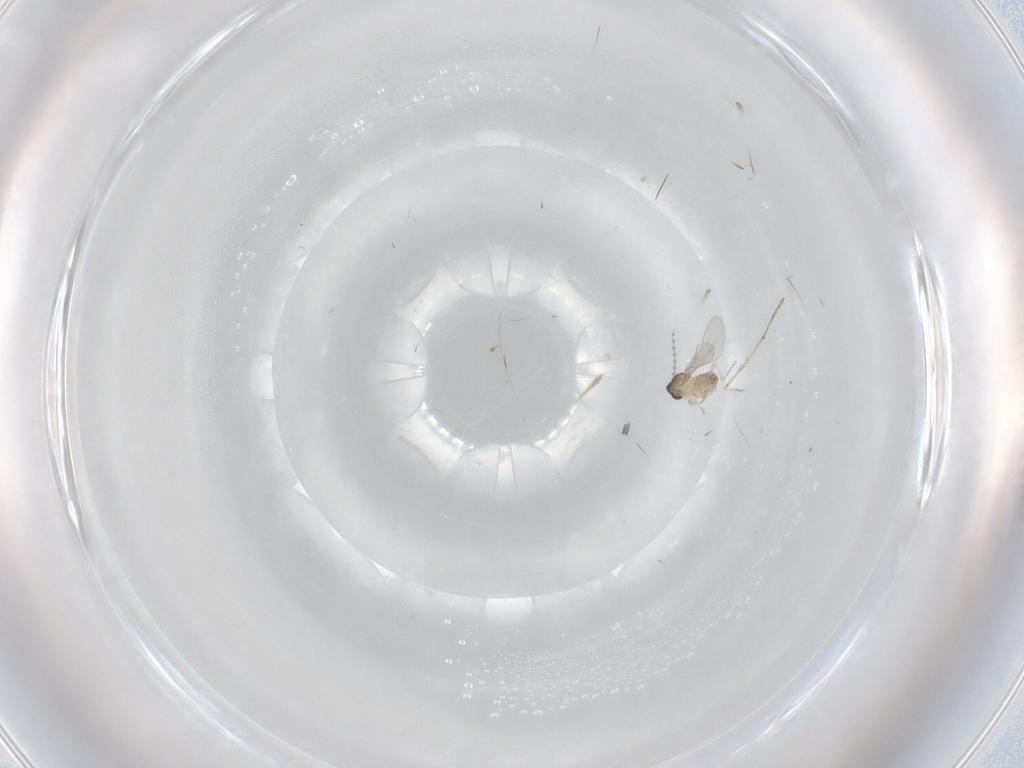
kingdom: Animalia
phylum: Arthropoda
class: Insecta
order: Diptera
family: Cecidomyiidae
